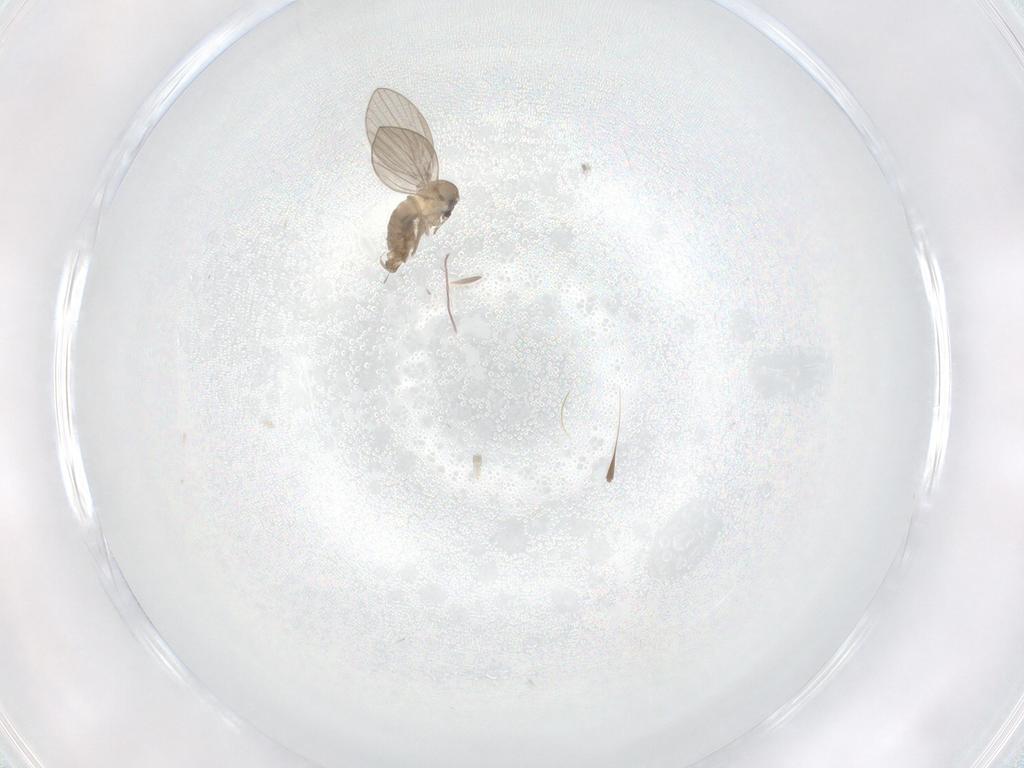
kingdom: Animalia
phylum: Arthropoda
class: Insecta
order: Diptera
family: Psychodidae
